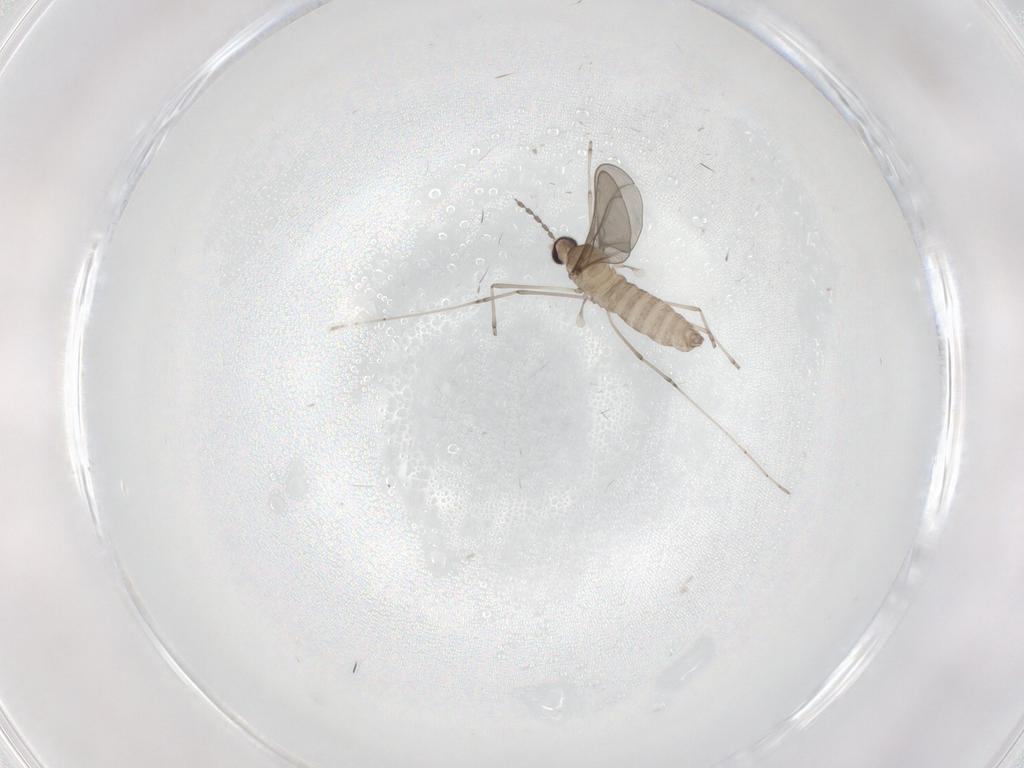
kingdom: Animalia
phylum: Arthropoda
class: Insecta
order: Diptera
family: Cecidomyiidae
